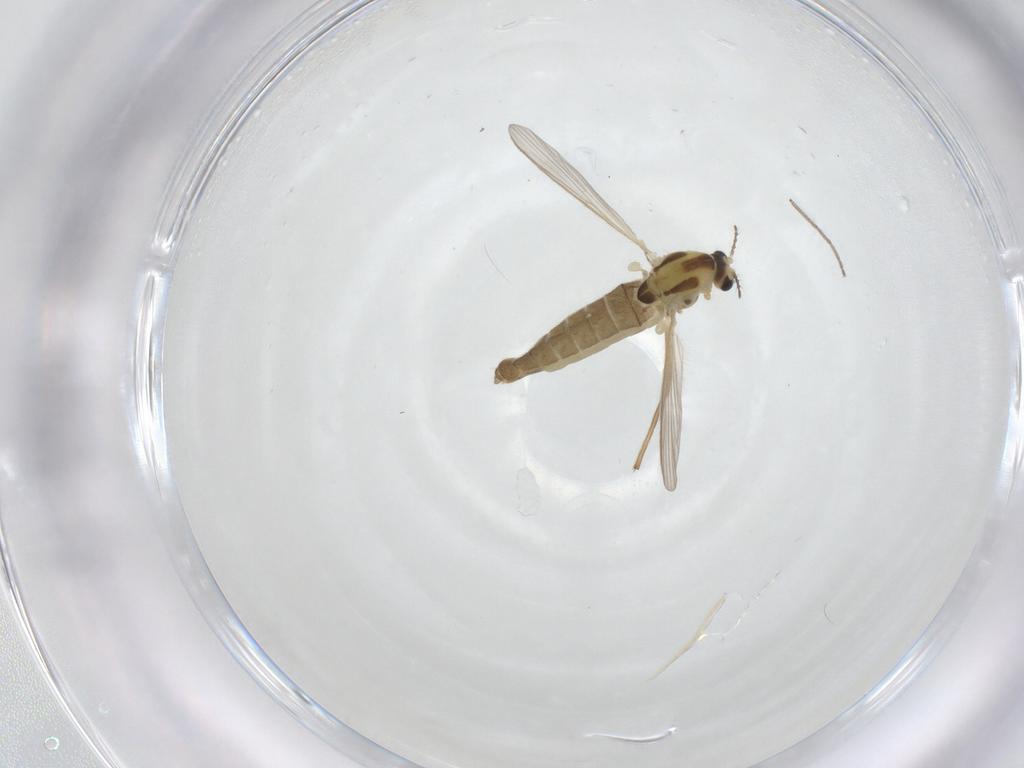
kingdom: Animalia
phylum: Arthropoda
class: Insecta
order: Diptera
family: Chironomidae
